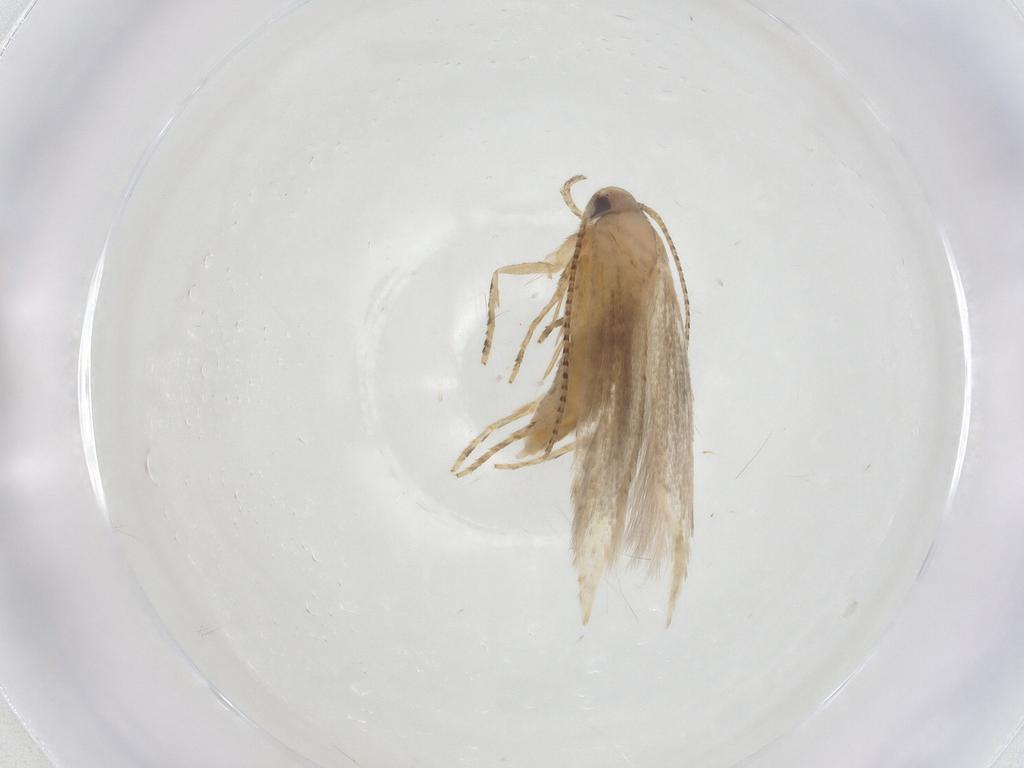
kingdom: Animalia
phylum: Arthropoda
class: Insecta
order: Lepidoptera
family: Stathmopodidae
